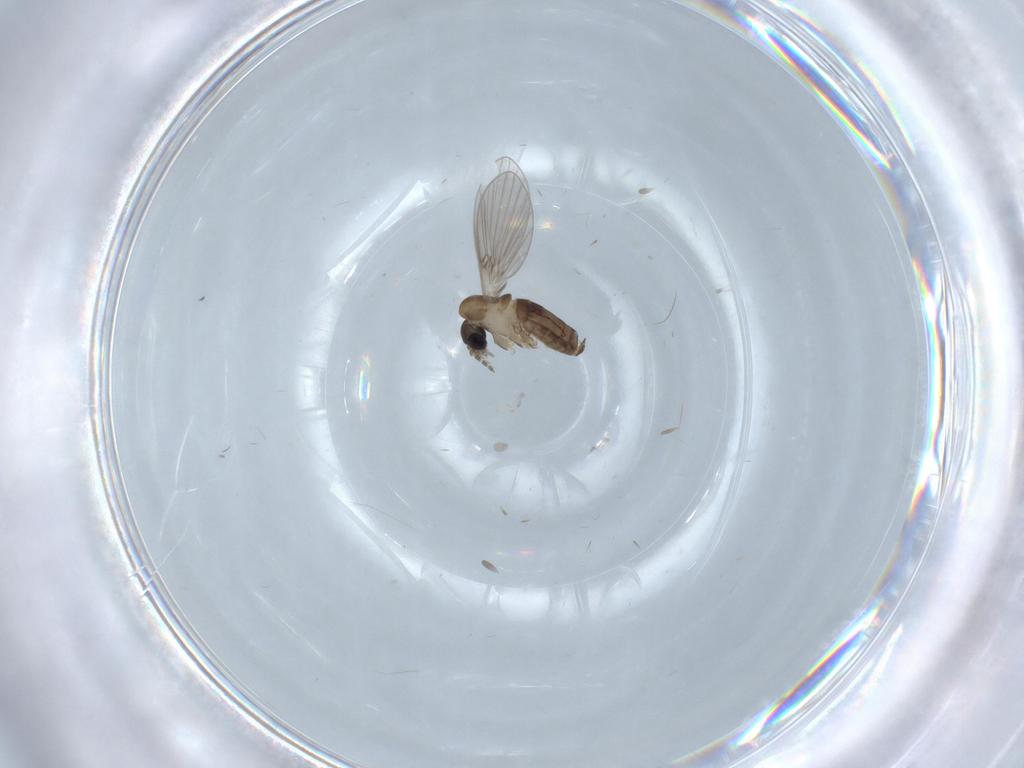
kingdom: Animalia
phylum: Arthropoda
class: Insecta
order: Diptera
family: Psychodidae
